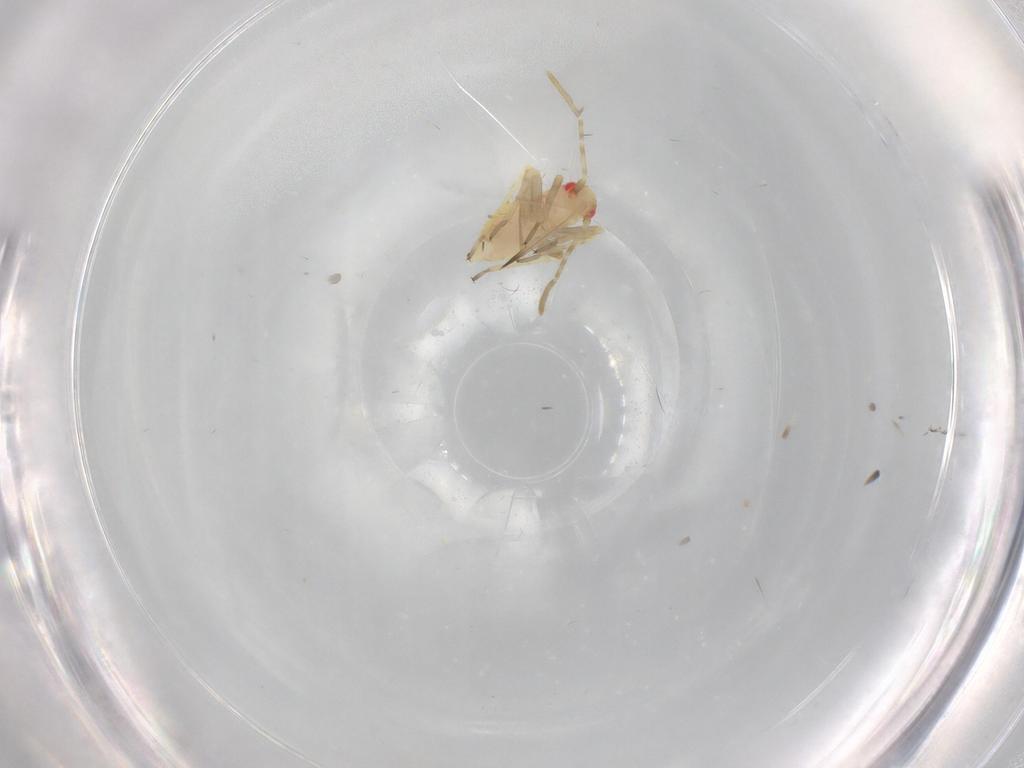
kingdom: Animalia
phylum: Arthropoda
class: Insecta
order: Hemiptera
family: Miridae
